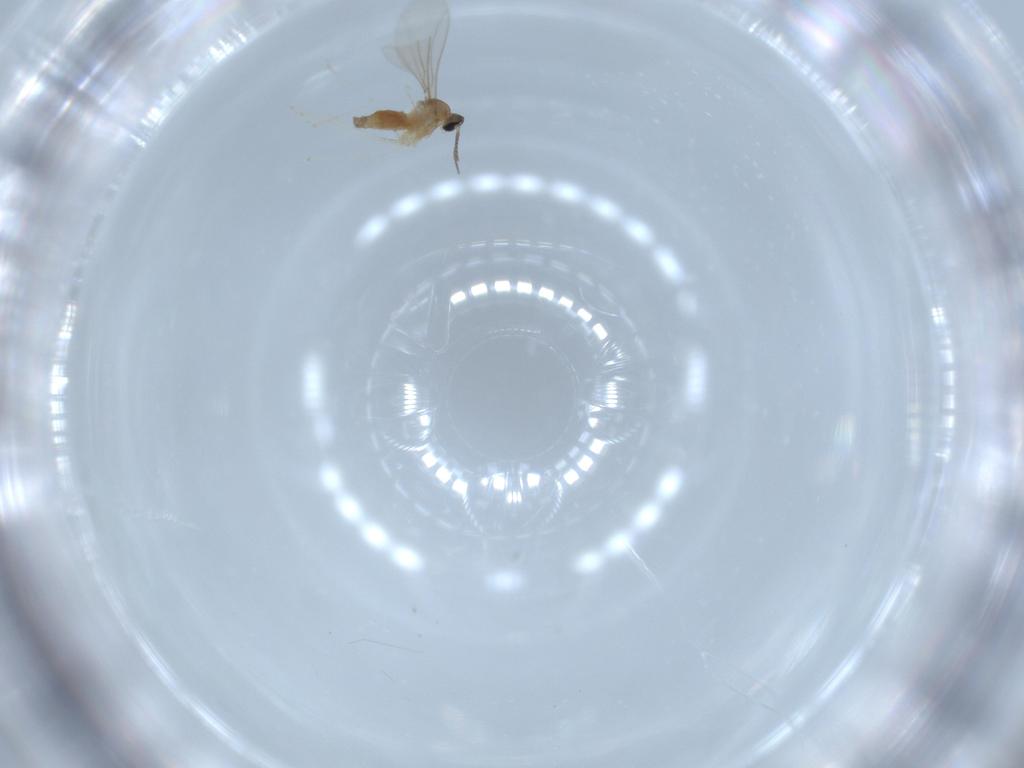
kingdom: Animalia
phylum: Arthropoda
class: Insecta
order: Diptera
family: Cecidomyiidae
